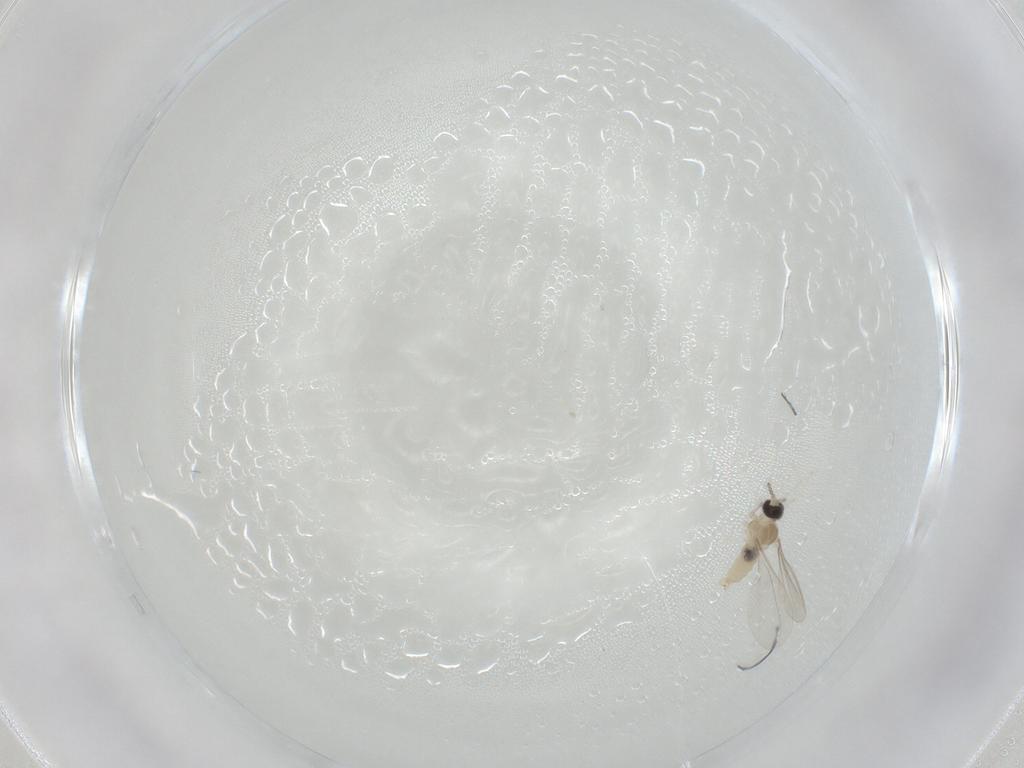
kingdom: Animalia
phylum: Arthropoda
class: Insecta
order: Diptera
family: Cecidomyiidae
